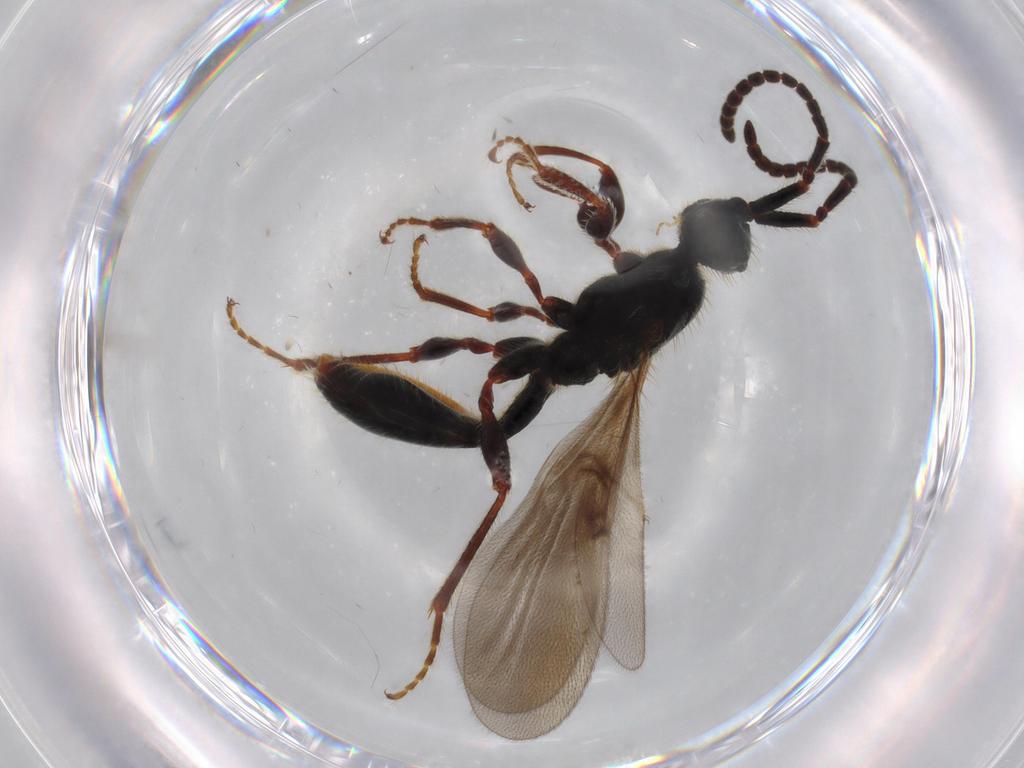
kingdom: Animalia
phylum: Arthropoda
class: Insecta
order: Hymenoptera
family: Diapriidae
